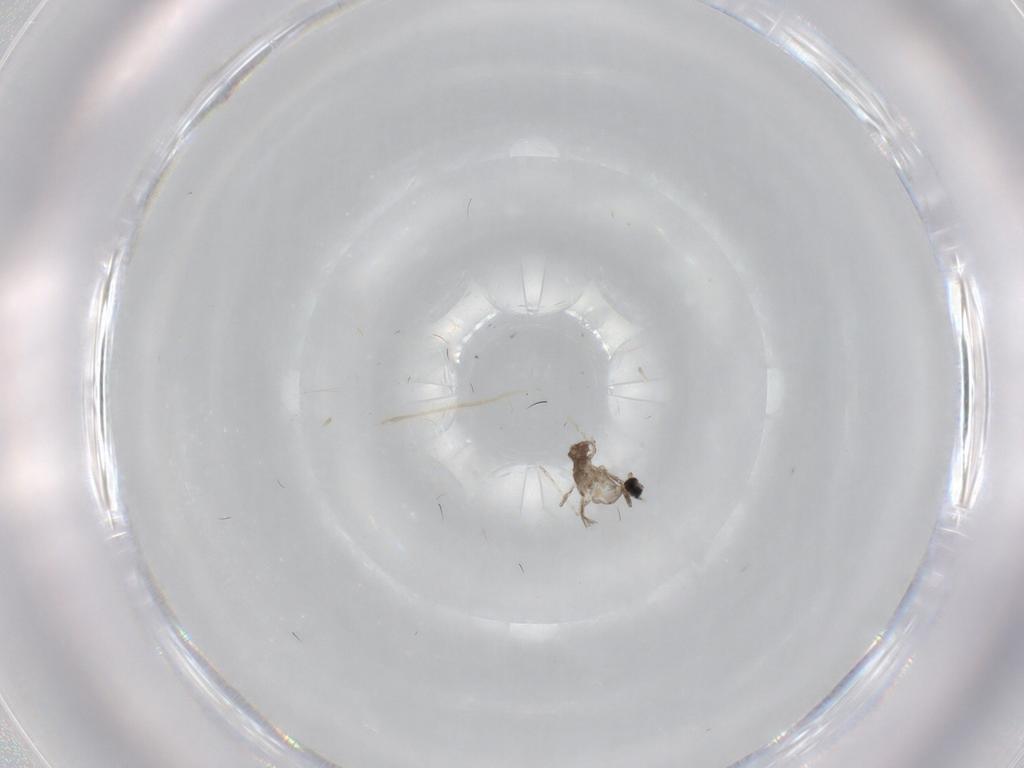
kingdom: Animalia
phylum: Arthropoda
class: Insecta
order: Diptera
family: Cecidomyiidae
